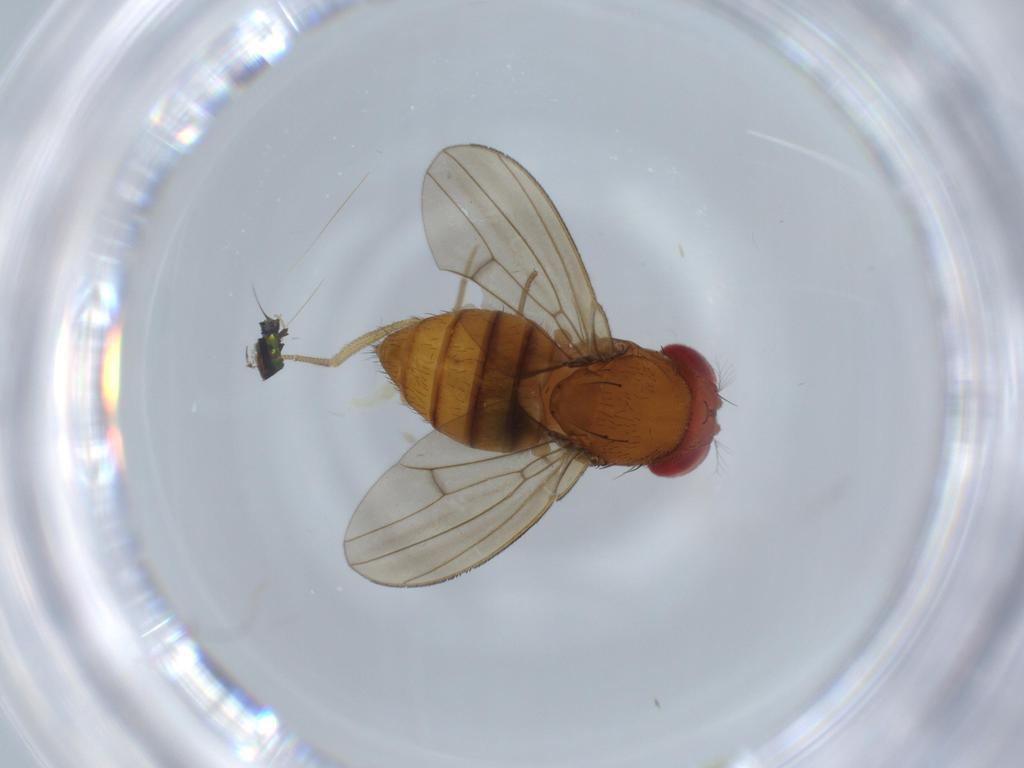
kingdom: Animalia
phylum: Arthropoda
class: Insecta
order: Diptera
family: Drosophilidae
